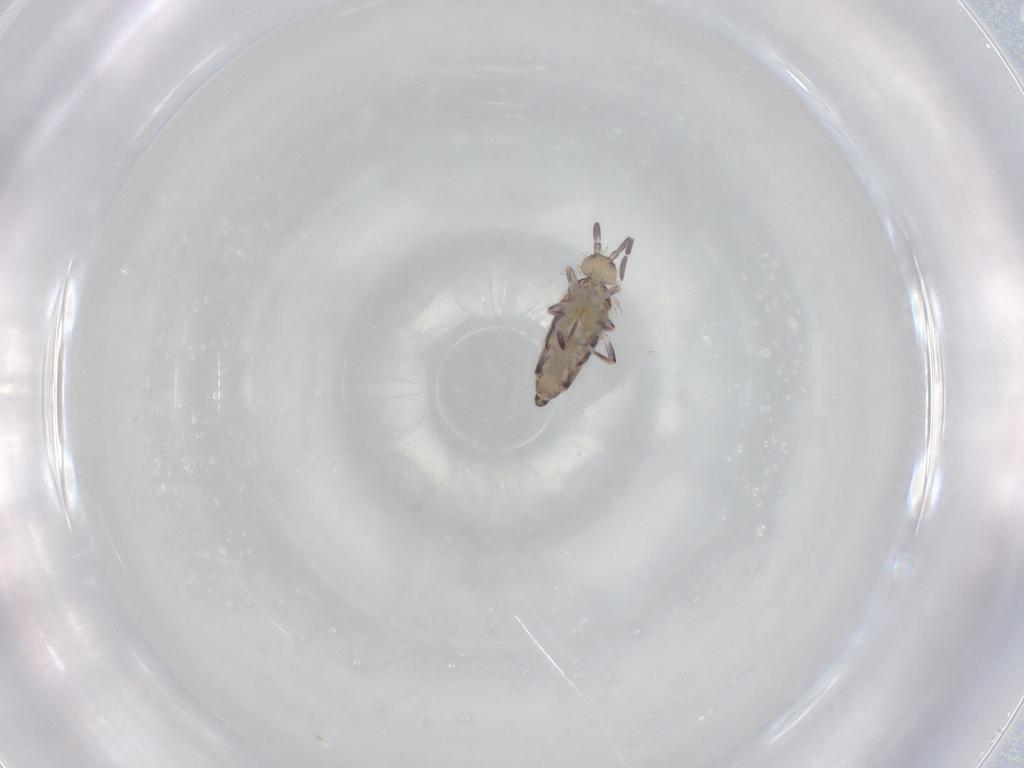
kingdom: Animalia
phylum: Arthropoda
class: Collembola
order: Entomobryomorpha
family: Entomobryidae
